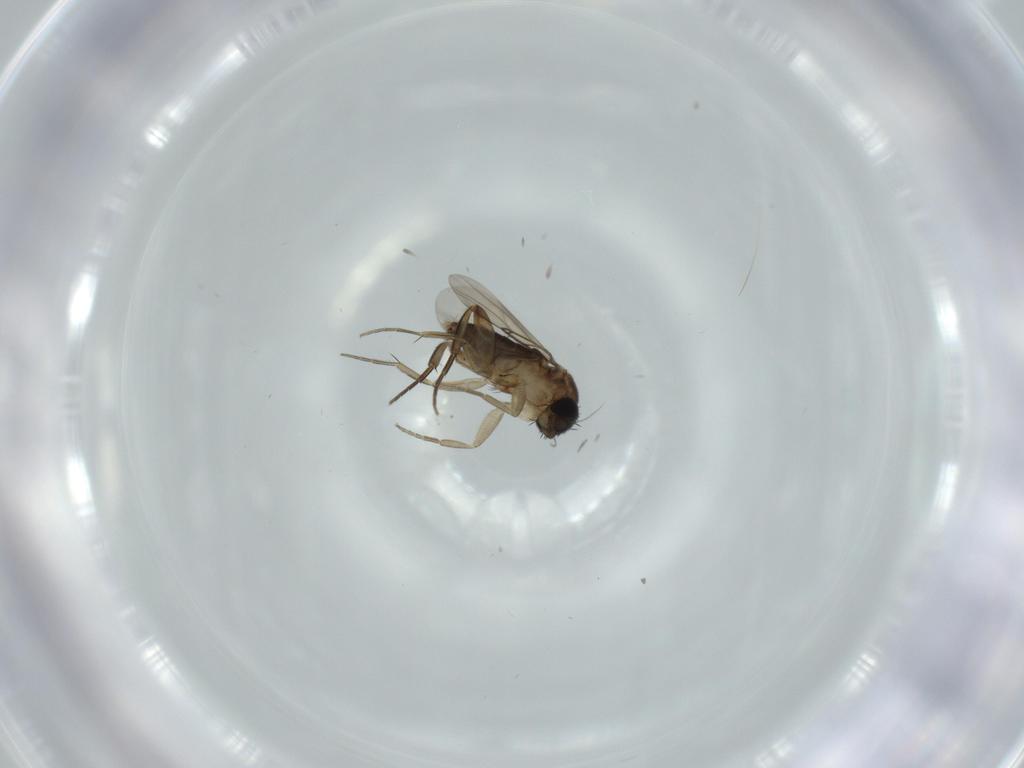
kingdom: Animalia
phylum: Arthropoda
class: Insecta
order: Diptera
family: Phoridae
